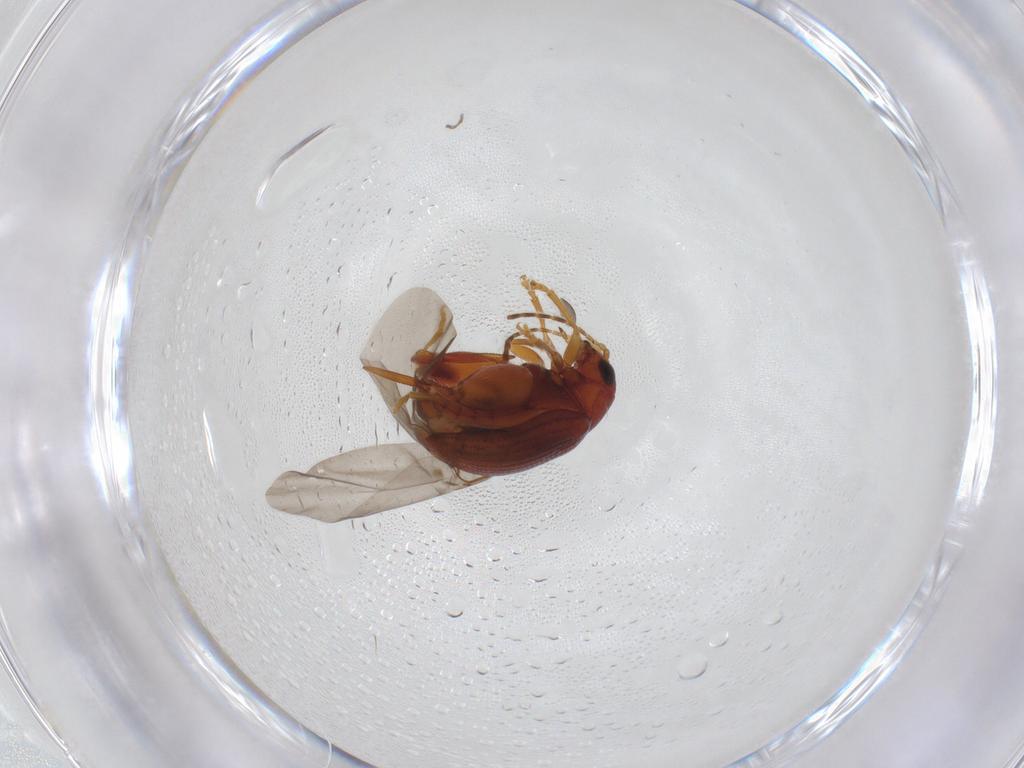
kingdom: Animalia
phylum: Arthropoda
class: Insecta
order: Coleoptera
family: Chrysomelidae
